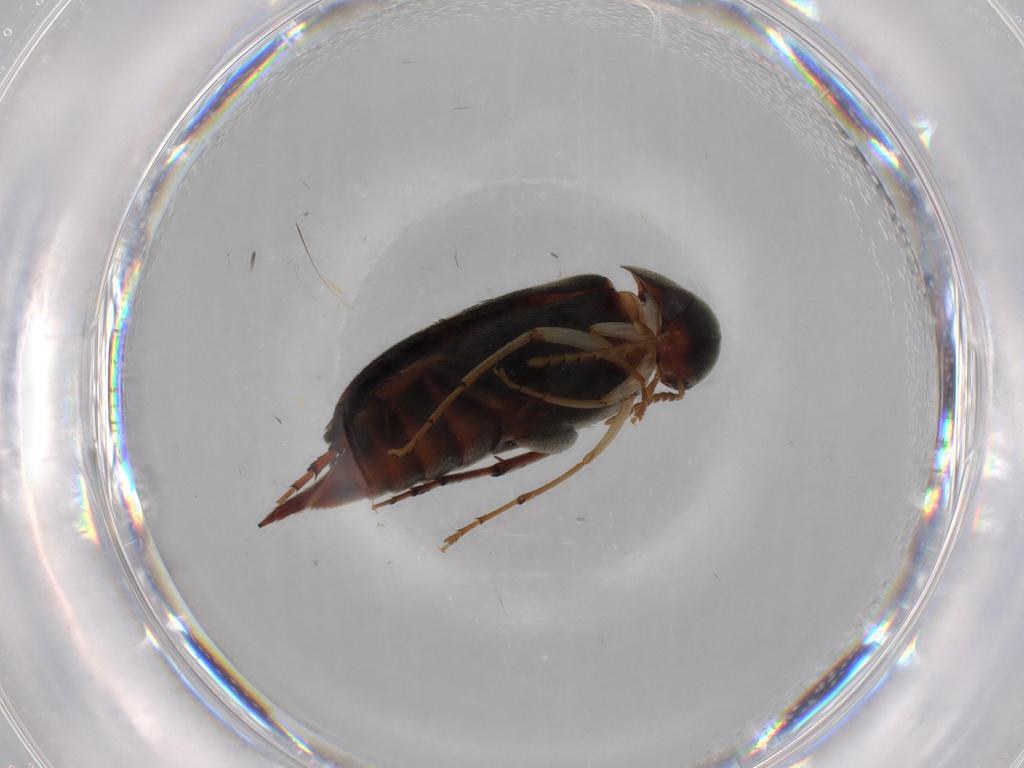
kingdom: Animalia
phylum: Arthropoda
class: Insecta
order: Coleoptera
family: Mordellidae
